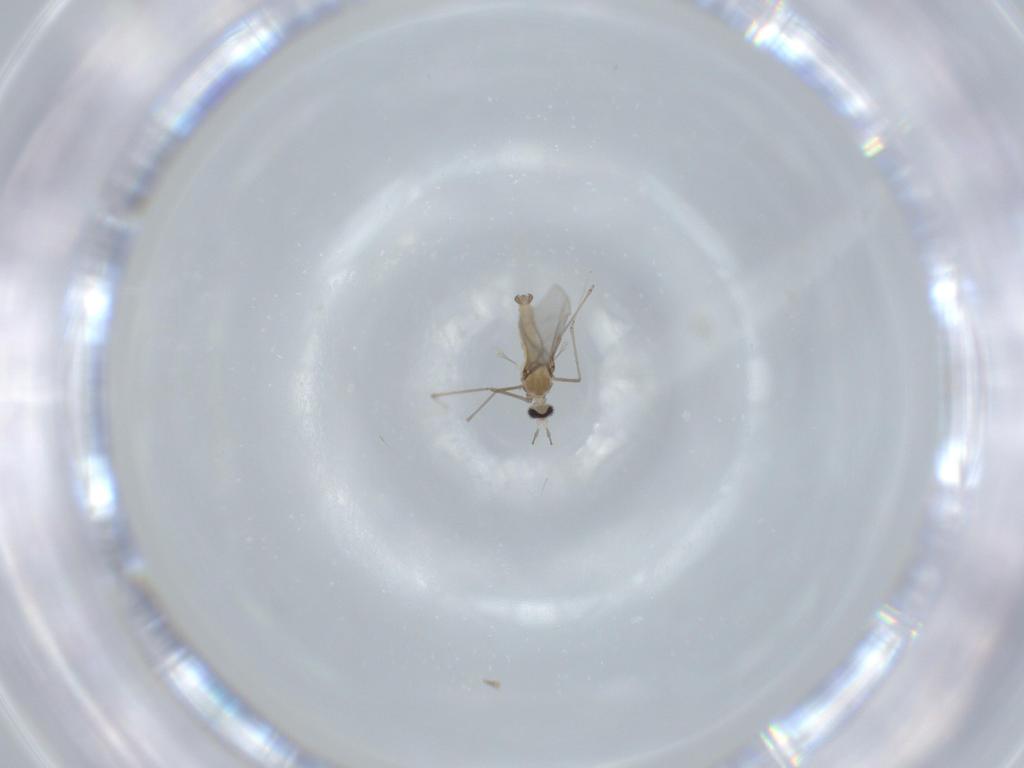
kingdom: Animalia
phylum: Arthropoda
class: Insecta
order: Diptera
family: Cecidomyiidae
